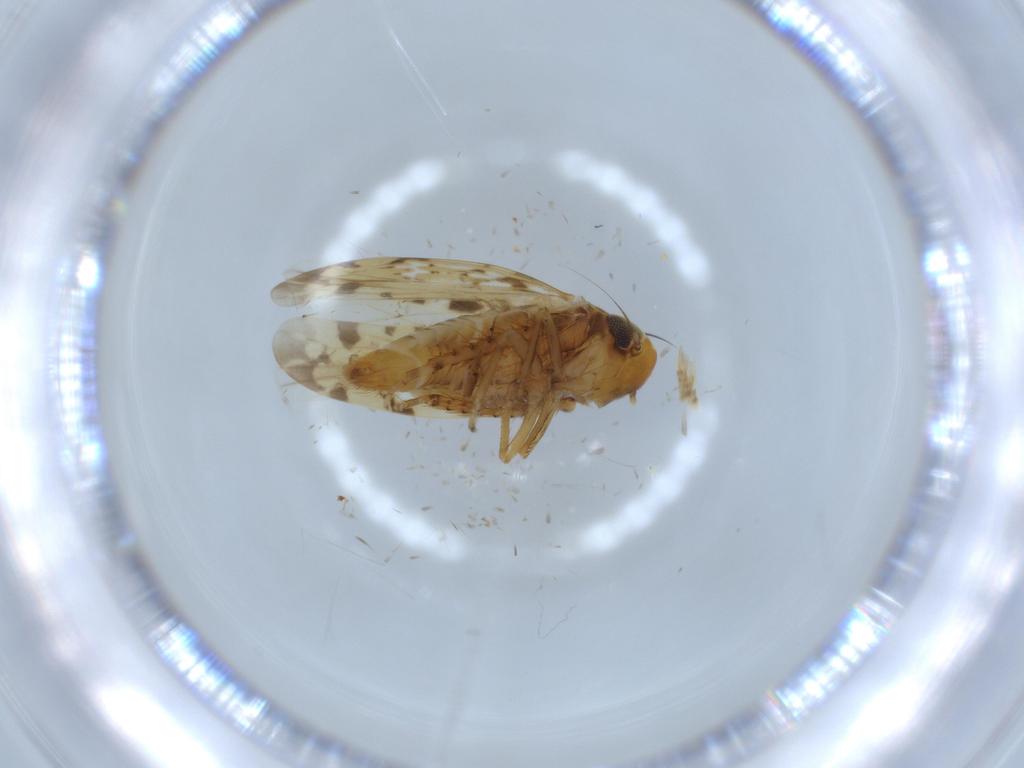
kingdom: Animalia
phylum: Arthropoda
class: Insecta
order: Hemiptera
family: Cicadellidae
